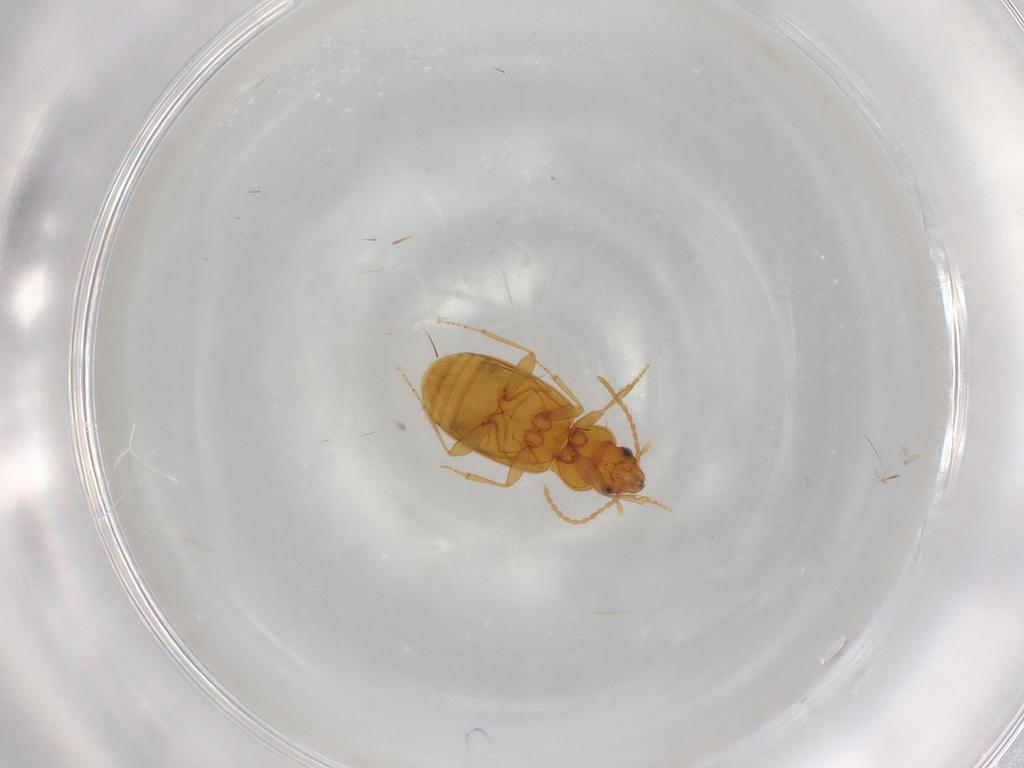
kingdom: Animalia
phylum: Arthropoda
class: Insecta
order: Coleoptera
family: Carabidae
